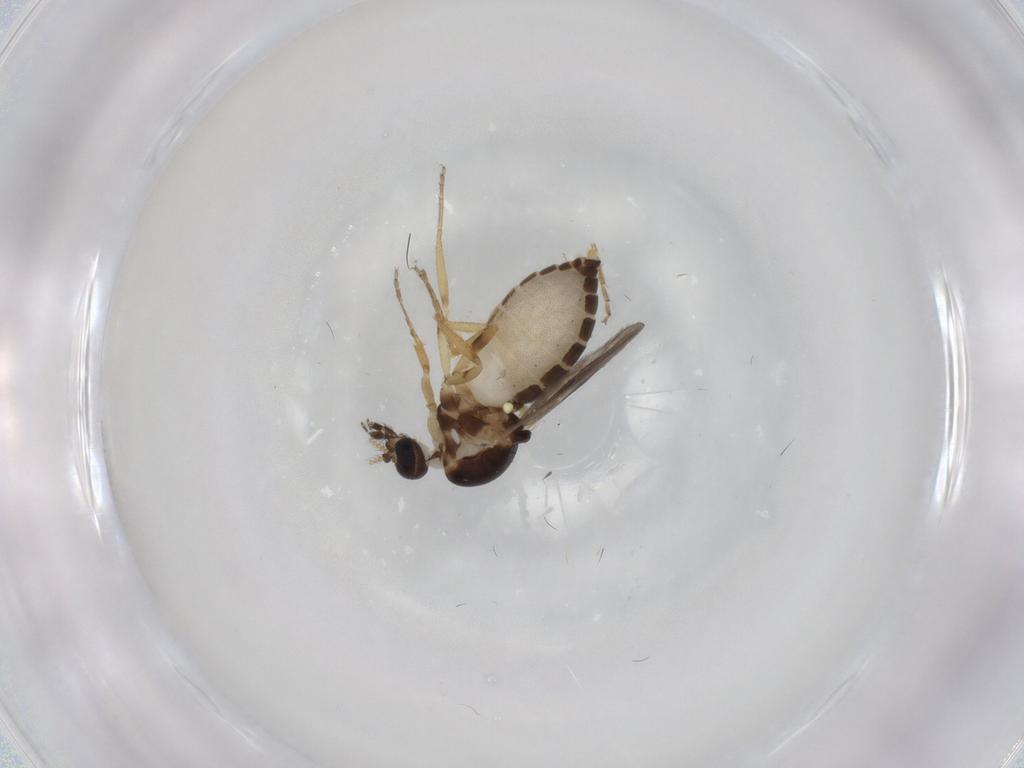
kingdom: Animalia
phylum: Arthropoda
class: Insecta
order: Diptera
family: Ceratopogonidae
